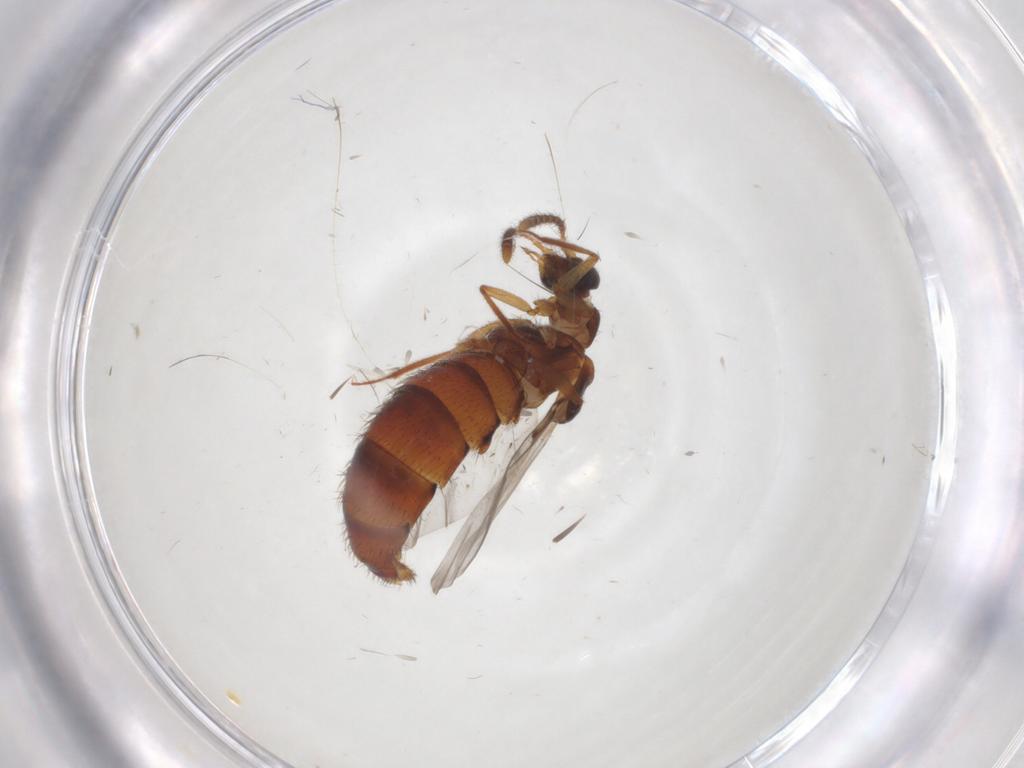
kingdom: Animalia
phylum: Arthropoda
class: Insecta
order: Coleoptera
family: Staphylinidae
